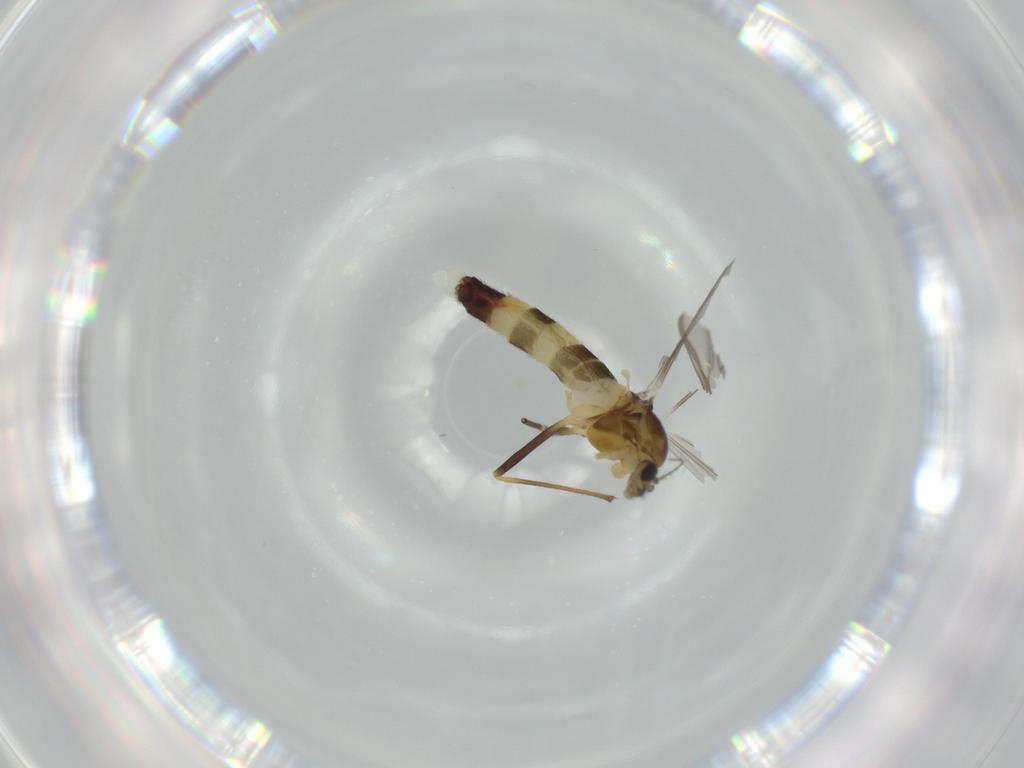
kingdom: Animalia
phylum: Arthropoda
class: Insecta
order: Diptera
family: Chironomidae
